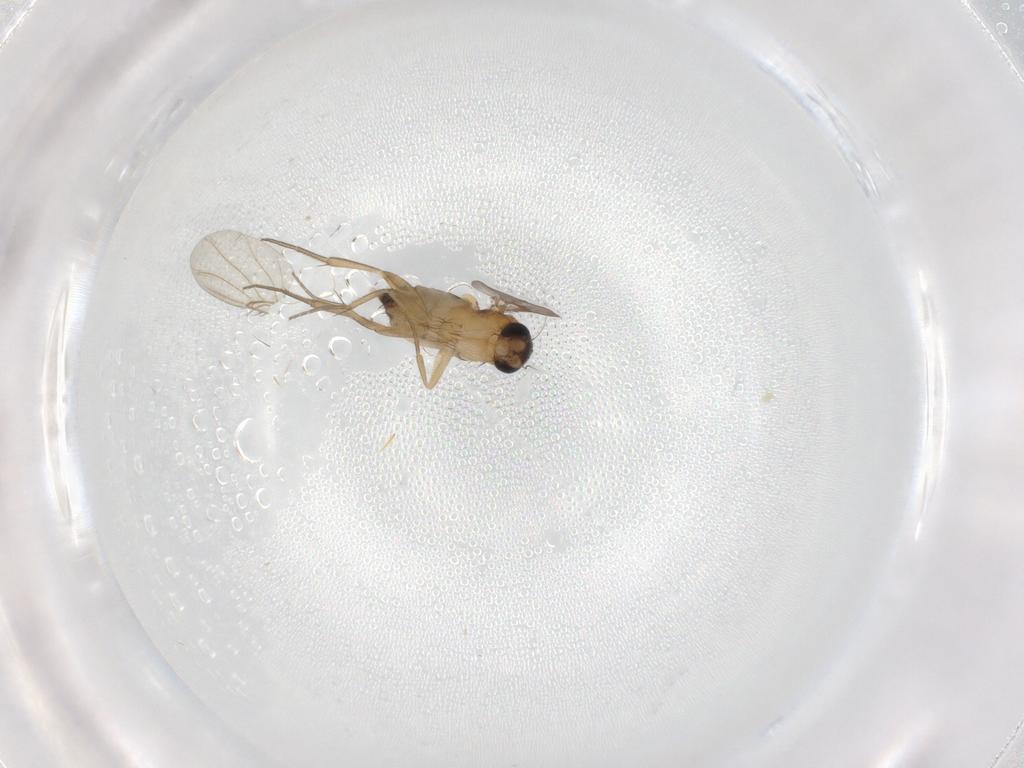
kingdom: Animalia
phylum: Arthropoda
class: Insecta
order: Diptera
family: Phoridae
